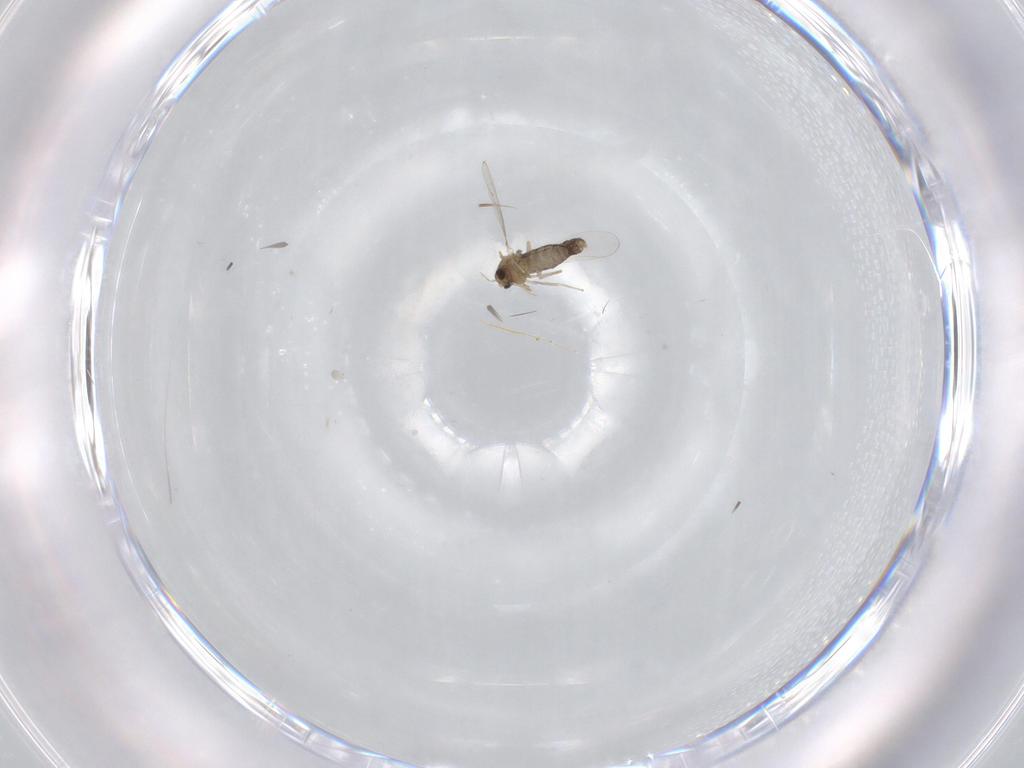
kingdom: Animalia
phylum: Arthropoda
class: Insecta
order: Diptera
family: Chironomidae
